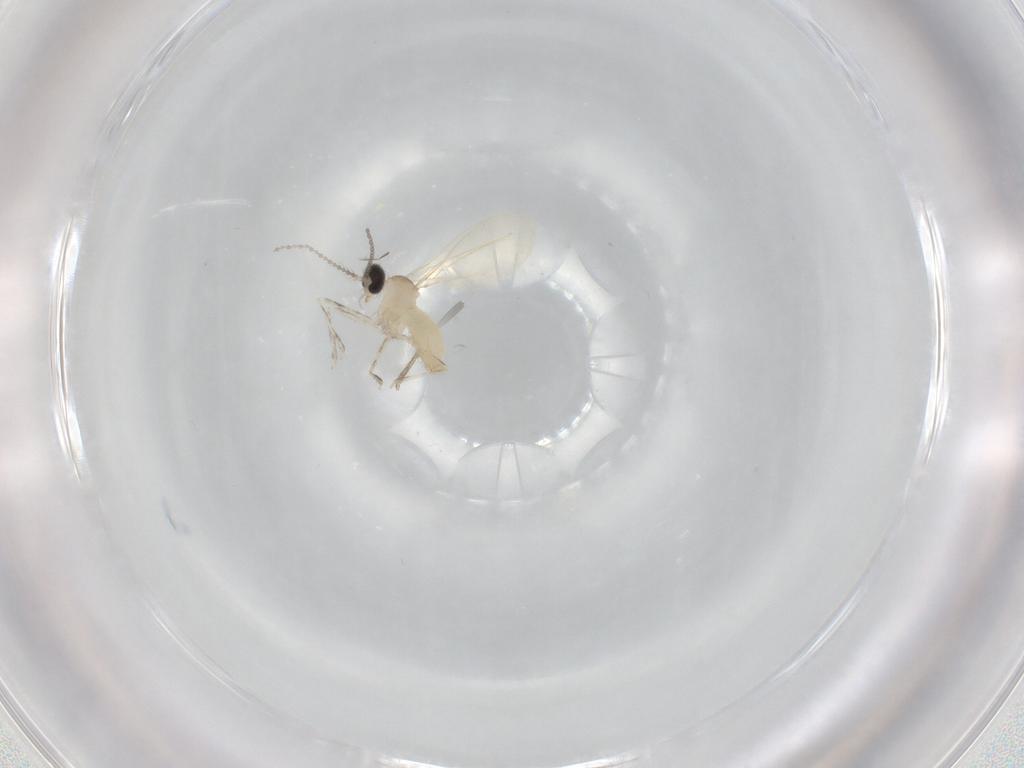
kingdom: Animalia
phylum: Arthropoda
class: Insecta
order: Diptera
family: Cecidomyiidae
